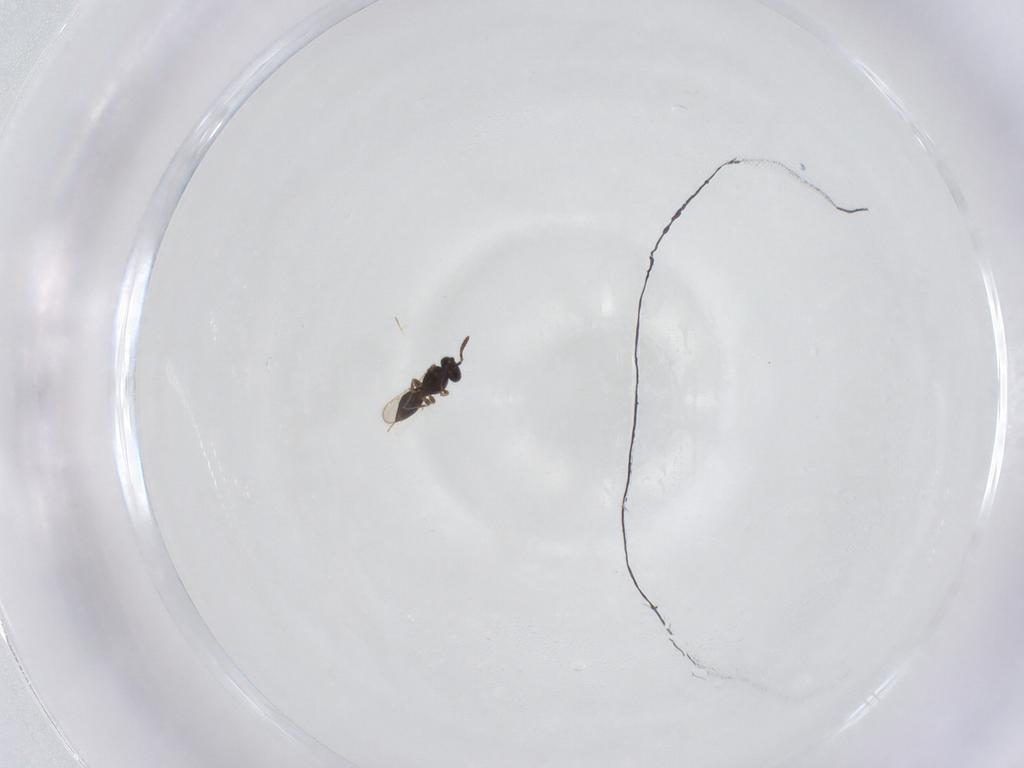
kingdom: Animalia
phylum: Arthropoda
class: Insecta
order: Hymenoptera
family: Scelionidae
